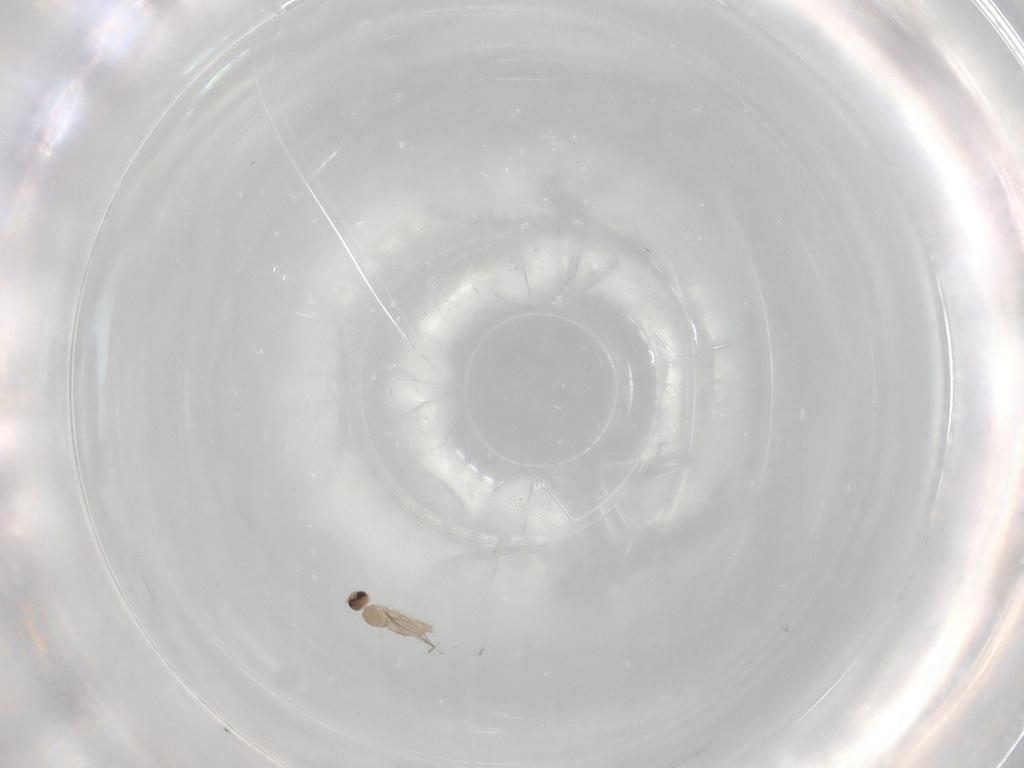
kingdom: Animalia
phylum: Arthropoda
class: Insecta
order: Diptera
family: Cecidomyiidae
